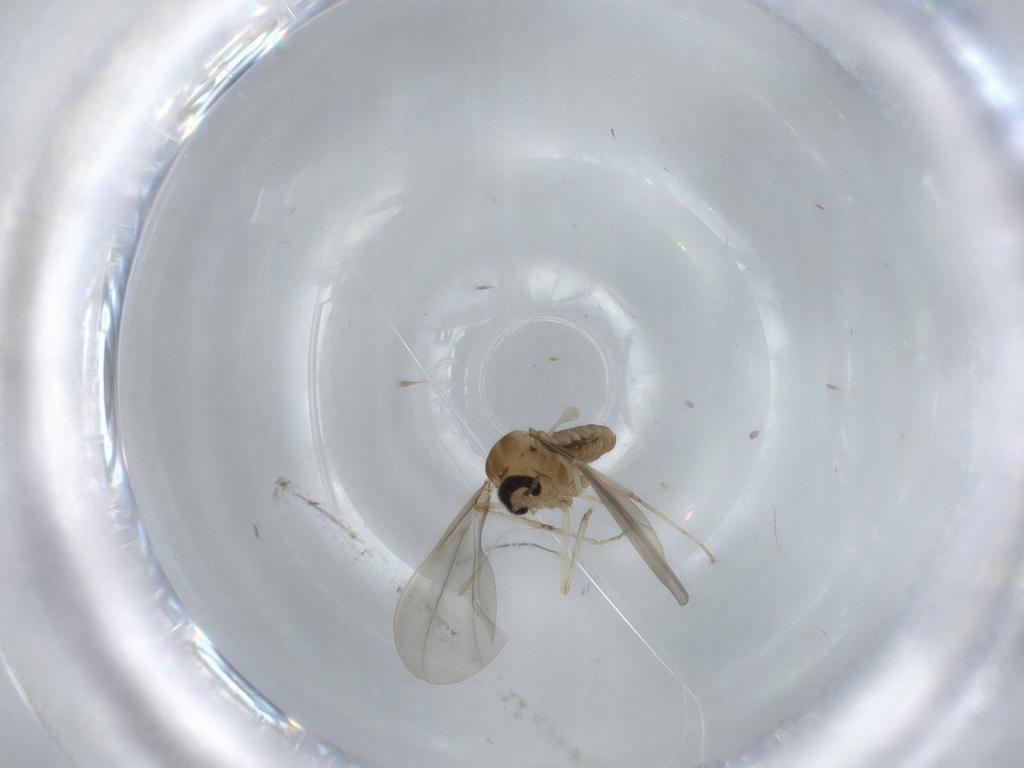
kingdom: Animalia
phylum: Arthropoda
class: Insecta
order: Diptera
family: Cecidomyiidae
